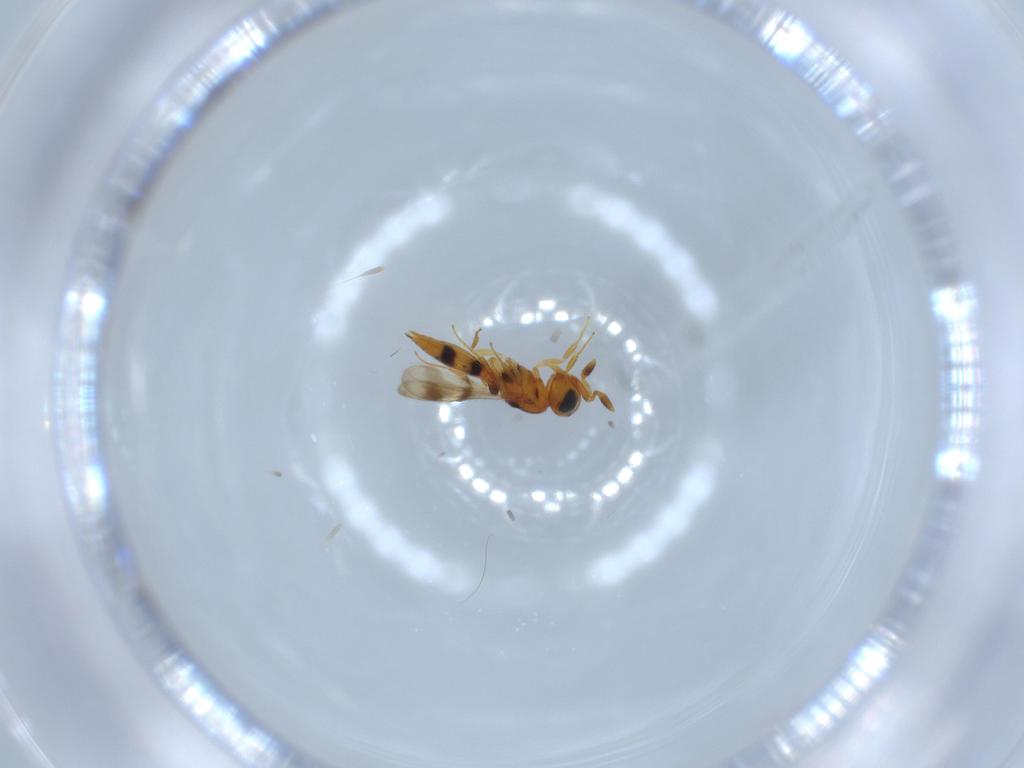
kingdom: Animalia
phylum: Arthropoda
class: Insecta
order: Hymenoptera
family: Scelionidae
